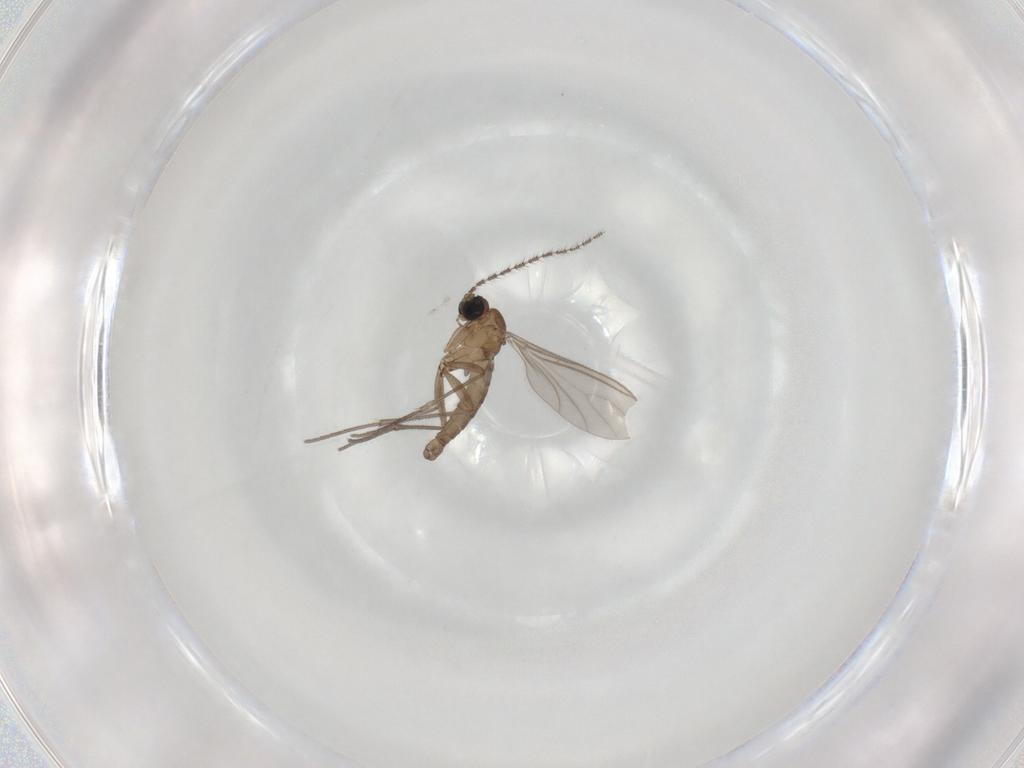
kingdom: Animalia
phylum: Arthropoda
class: Insecta
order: Diptera
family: Sciaridae
